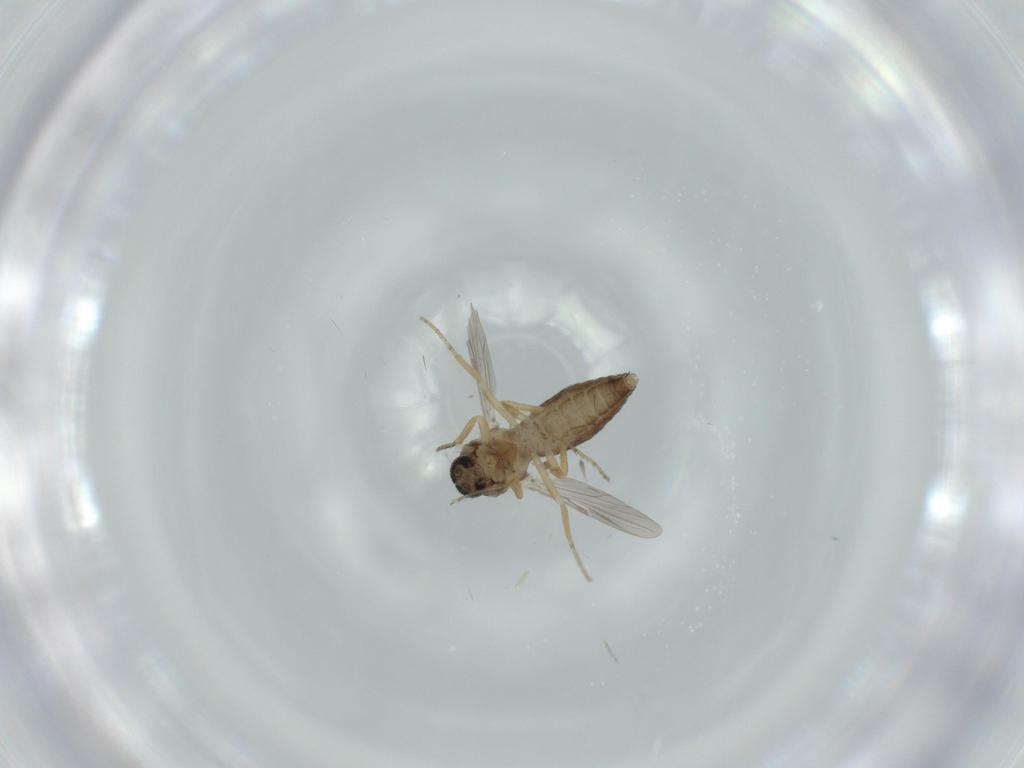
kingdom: Animalia
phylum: Arthropoda
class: Insecta
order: Diptera
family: Ceratopogonidae
